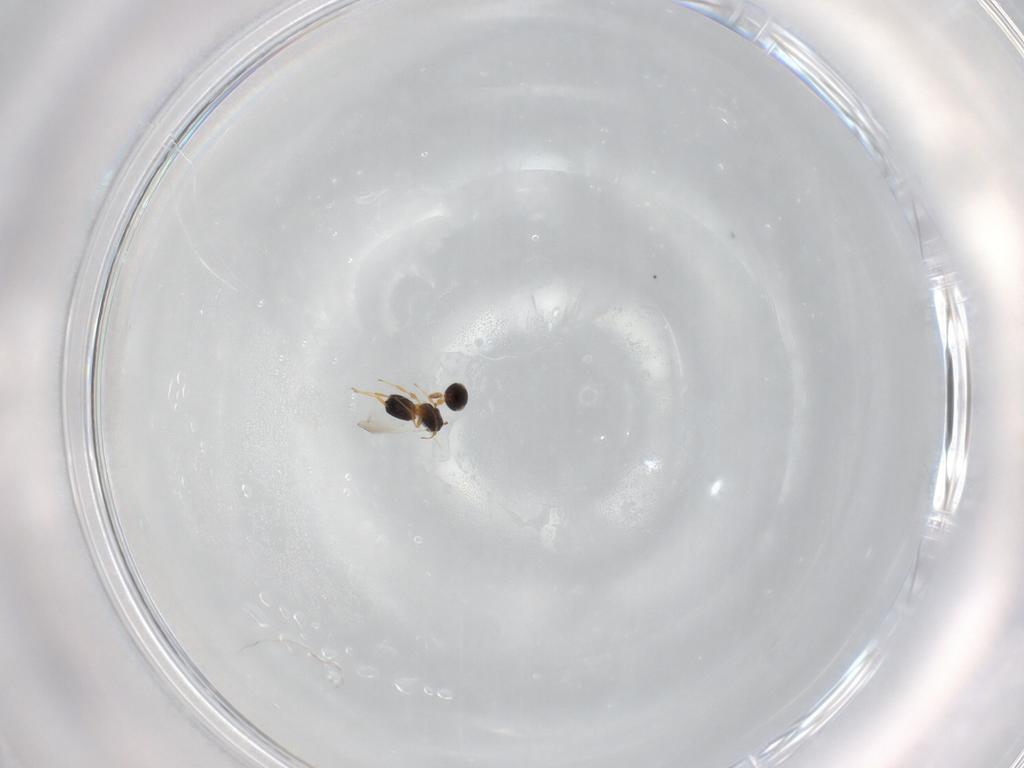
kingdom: Animalia
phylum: Arthropoda
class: Insecta
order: Hymenoptera
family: Platygastridae
